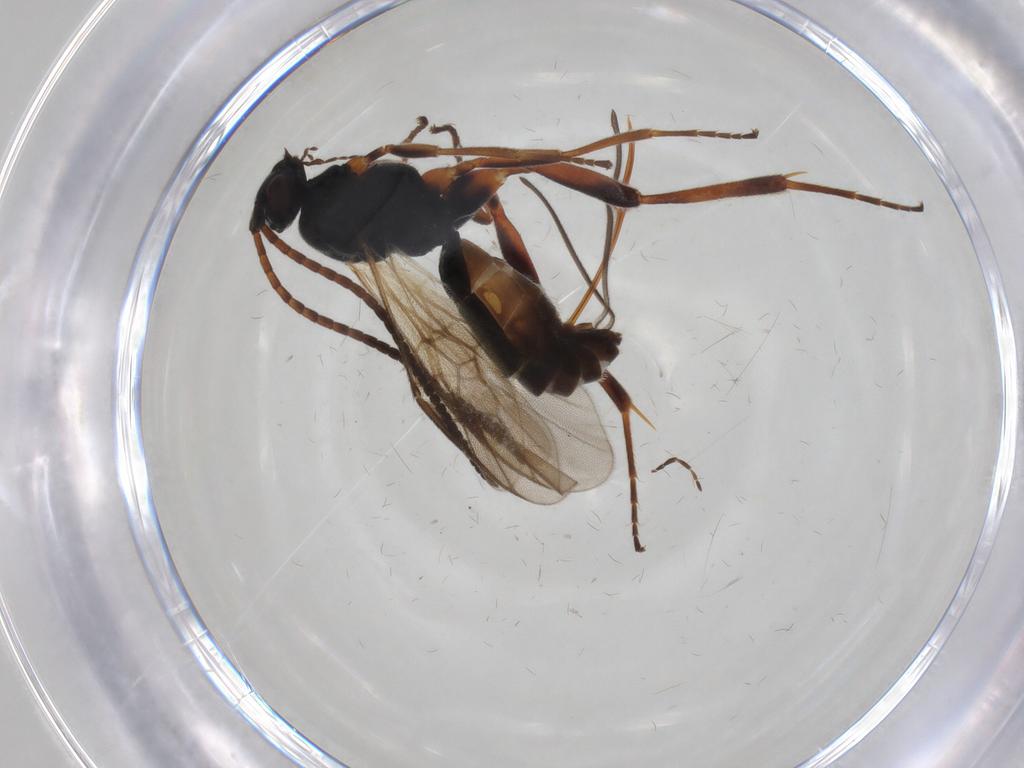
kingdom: Animalia
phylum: Arthropoda
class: Insecta
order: Hymenoptera
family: Braconidae
